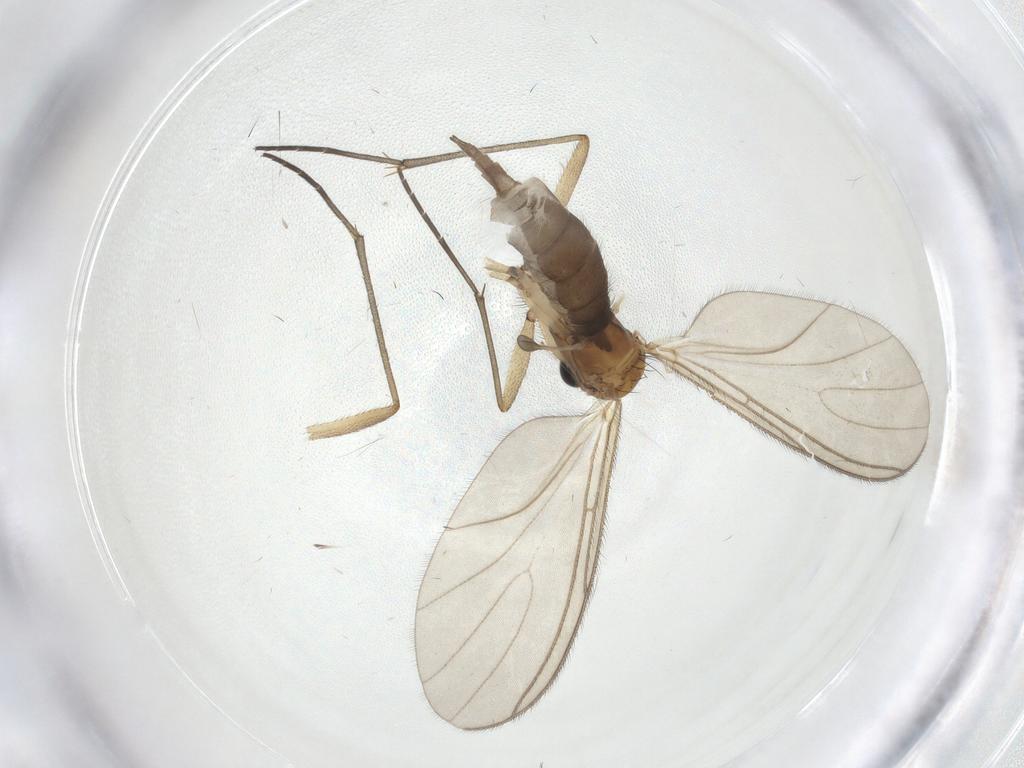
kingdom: Animalia
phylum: Arthropoda
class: Insecta
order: Diptera
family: Sciaridae
